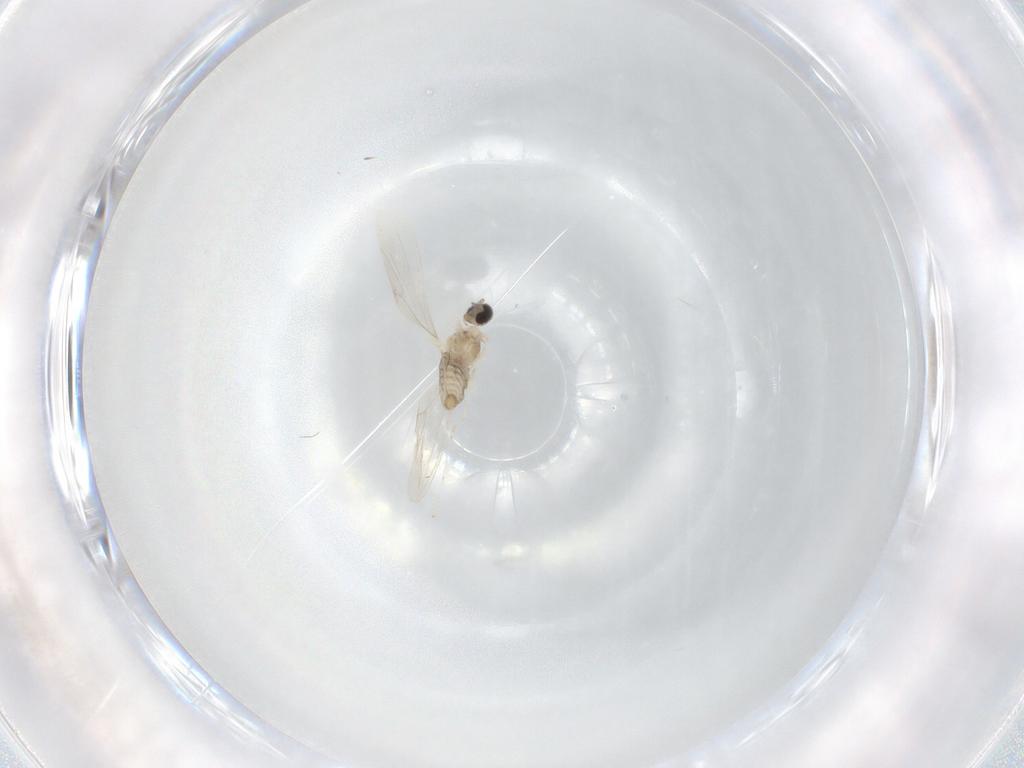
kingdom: Animalia
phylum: Arthropoda
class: Insecta
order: Diptera
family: Cecidomyiidae
